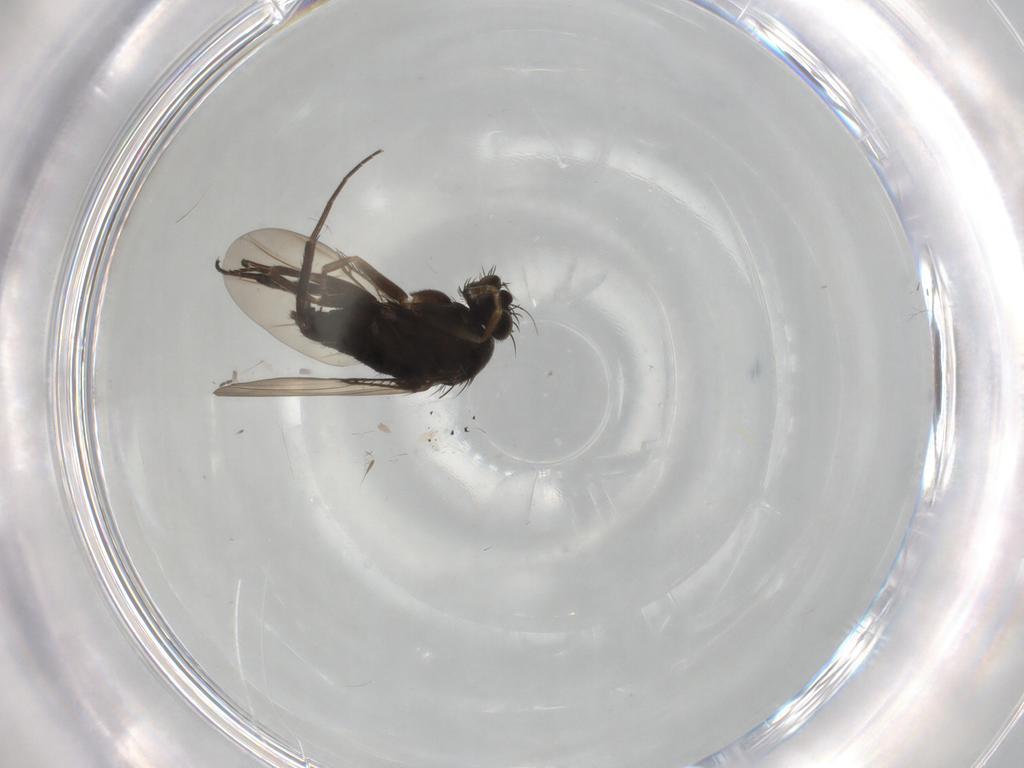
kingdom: Animalia
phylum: Arthropoda
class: Insecta
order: Diptera
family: Phoridae
